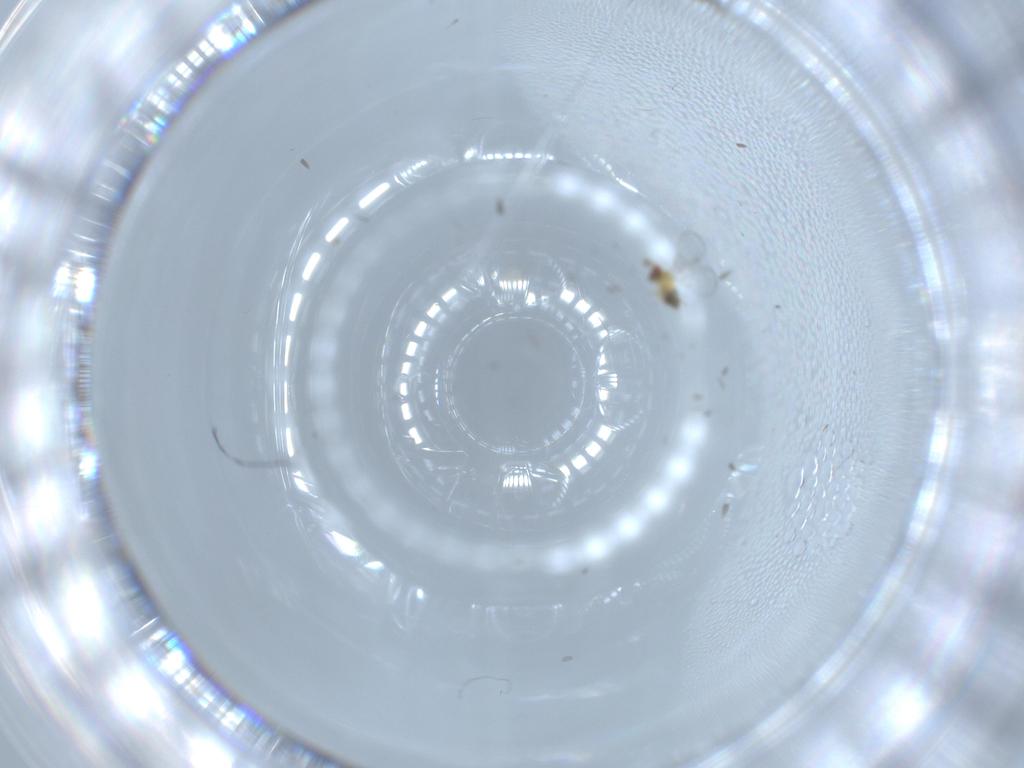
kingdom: Animalia
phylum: Arthropoda
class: Insecta
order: Hymenoptera
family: Trichogrammatidae
